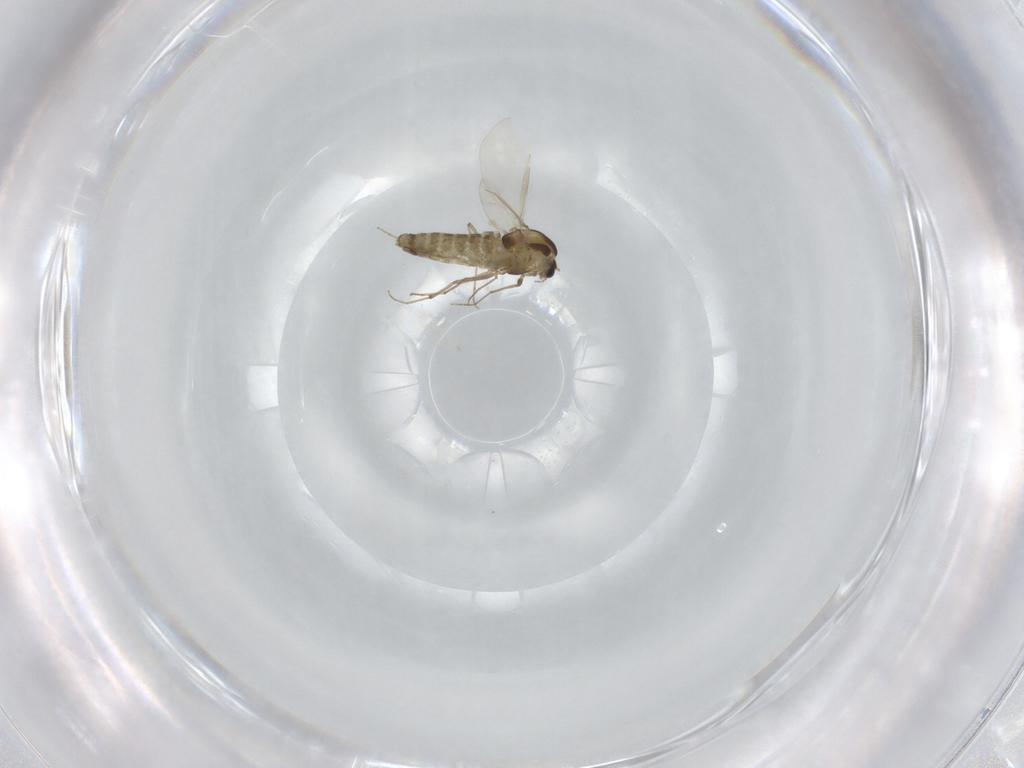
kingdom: Animalia
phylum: Arthropoda
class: Insecta
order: Diptera
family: Chironomidae
